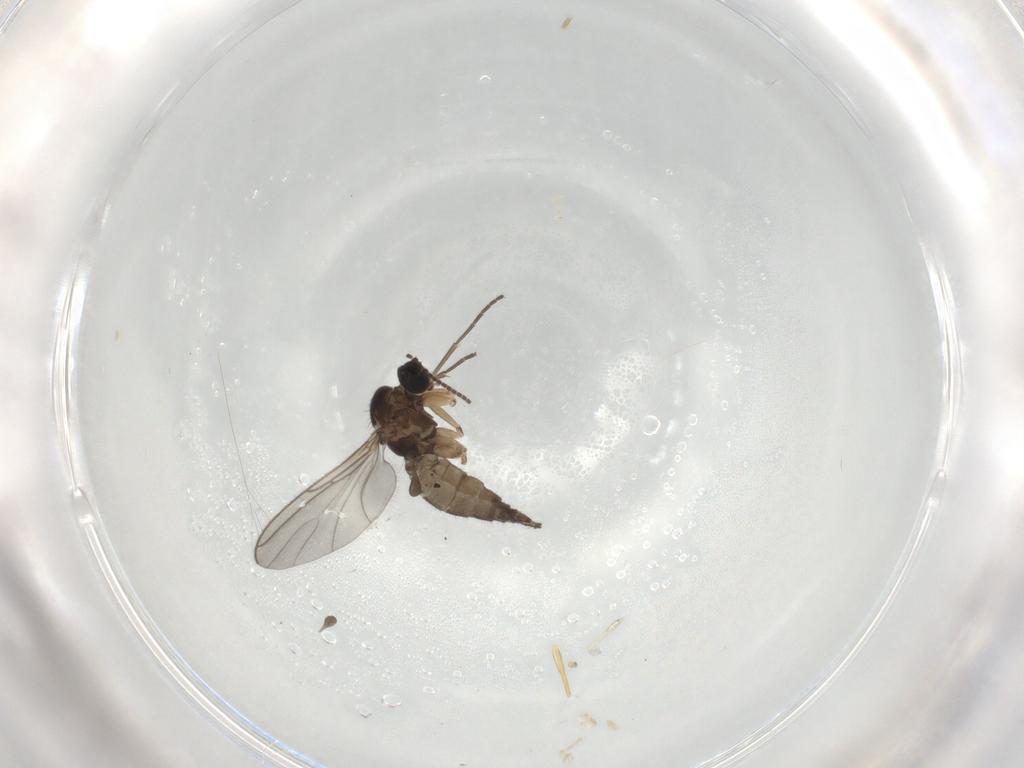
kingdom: Animalia
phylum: Arthropoda
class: Insecta
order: Diptera
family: Sciaridae
